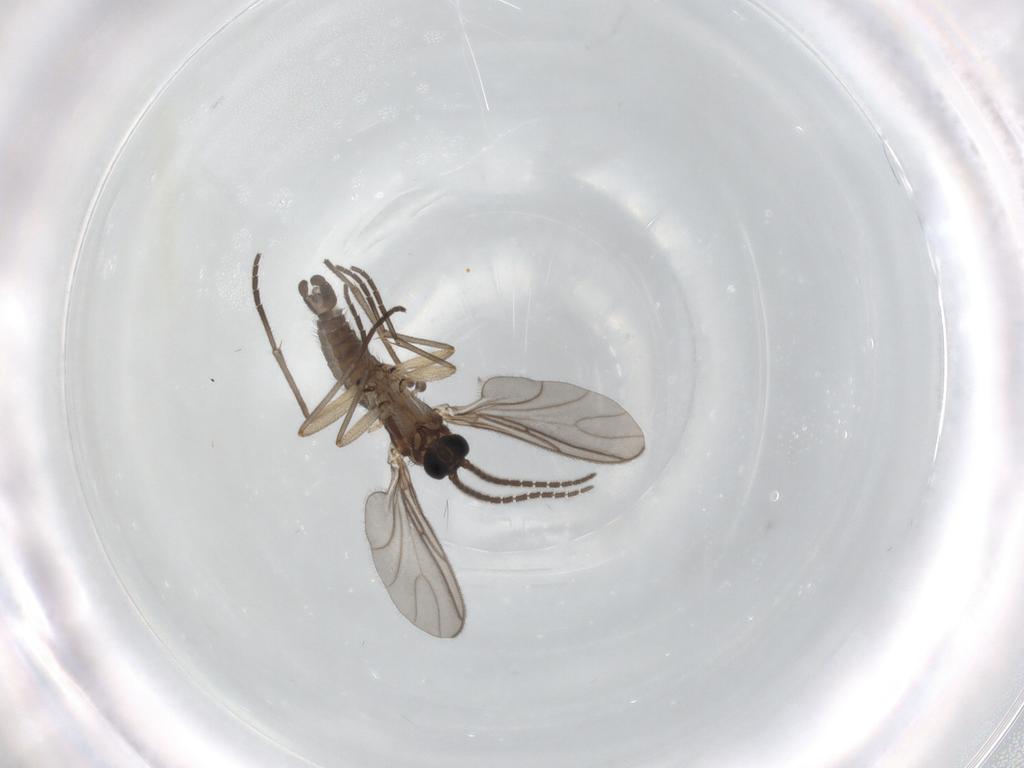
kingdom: Animalia
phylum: Arthropoda
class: Insecta
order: Diptera
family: Sciaridae
